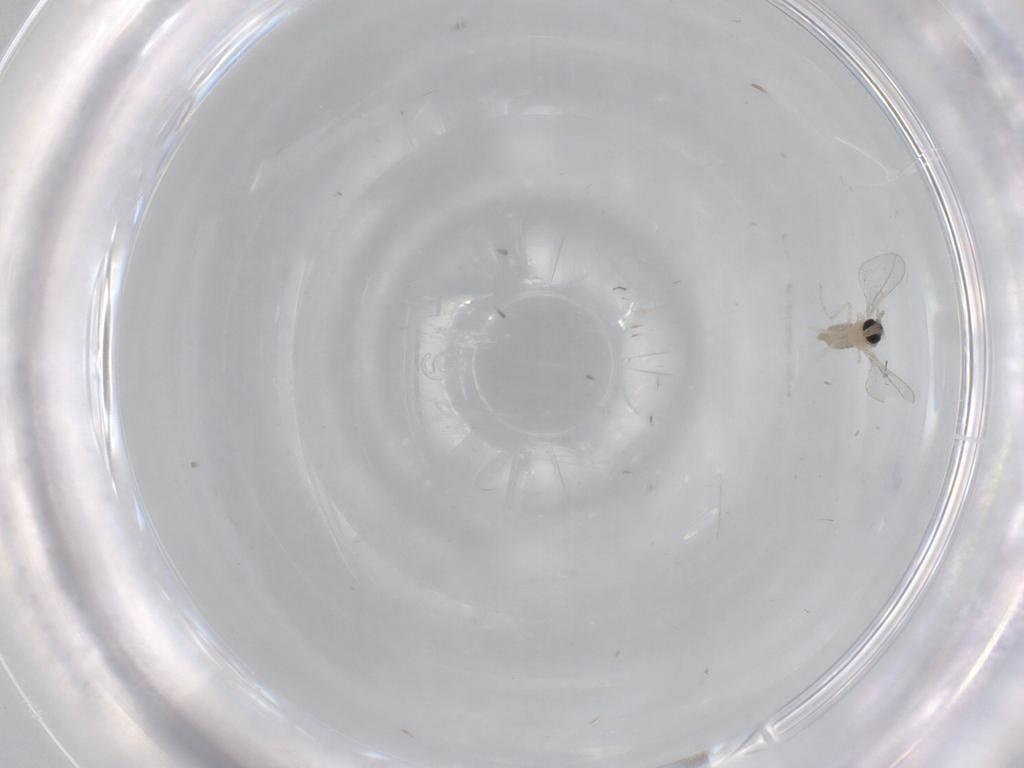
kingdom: Animalia
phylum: Arthropoda
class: Insecta
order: Diptera
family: Cecidomyiidae
